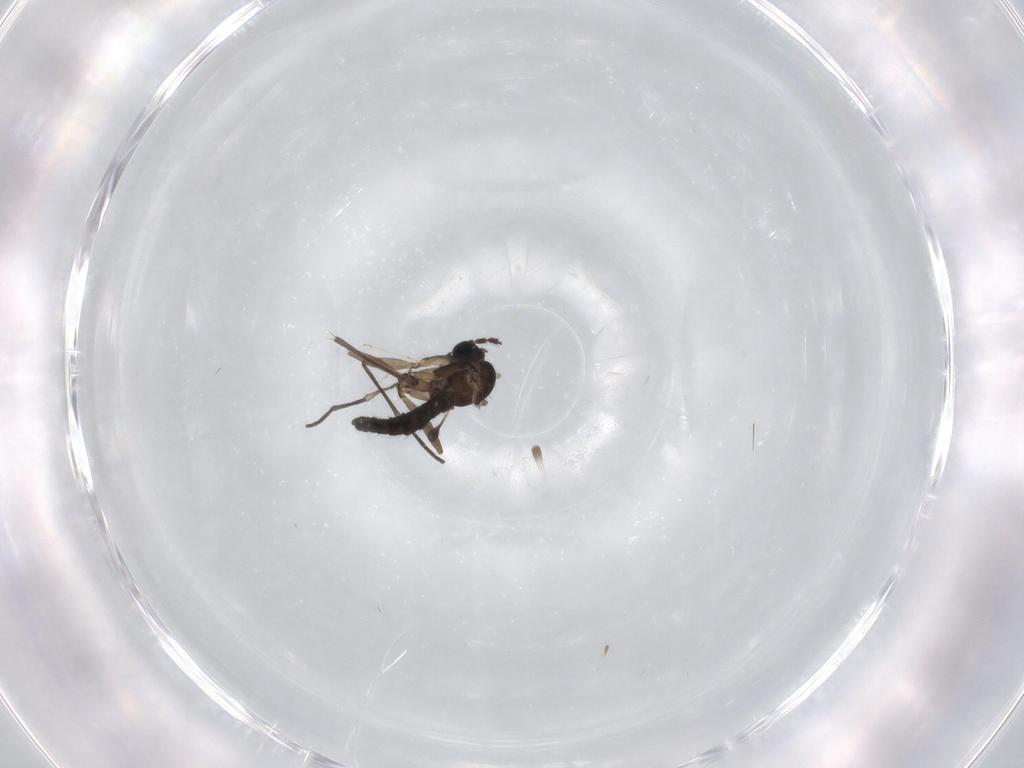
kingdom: Animalia
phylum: Arthropoda
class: Insecta
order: Diptera
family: Sciaridae
